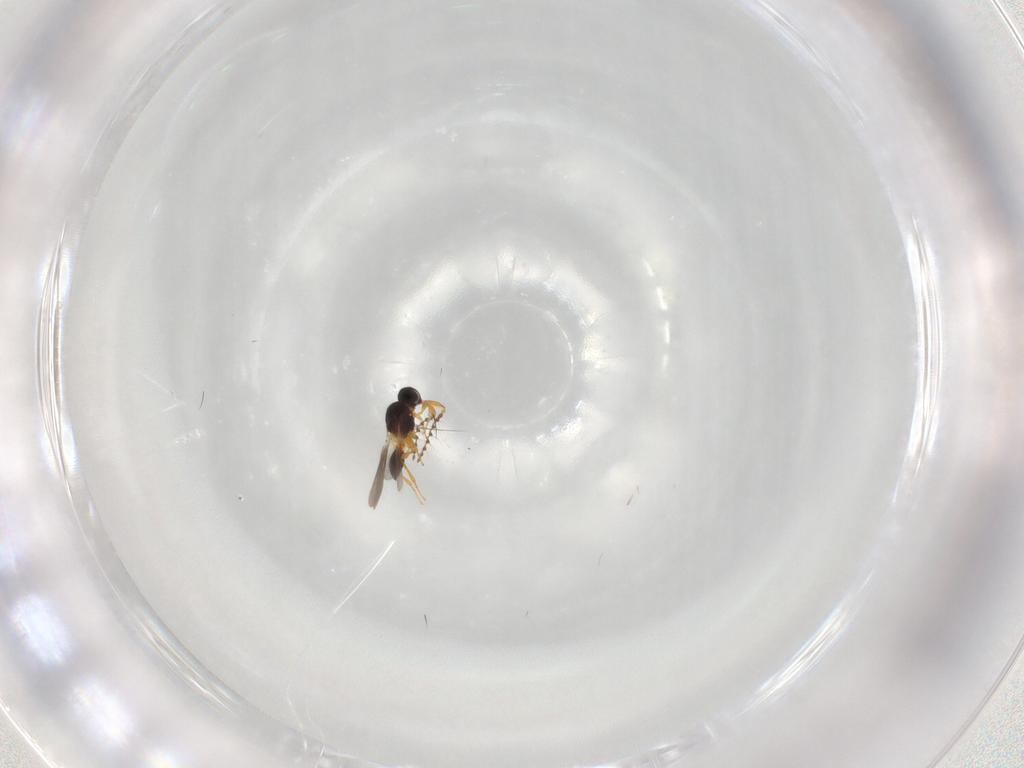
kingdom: Animalia
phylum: Arthropoda
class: Insecta
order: Hymenoptera
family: Platygastridae
